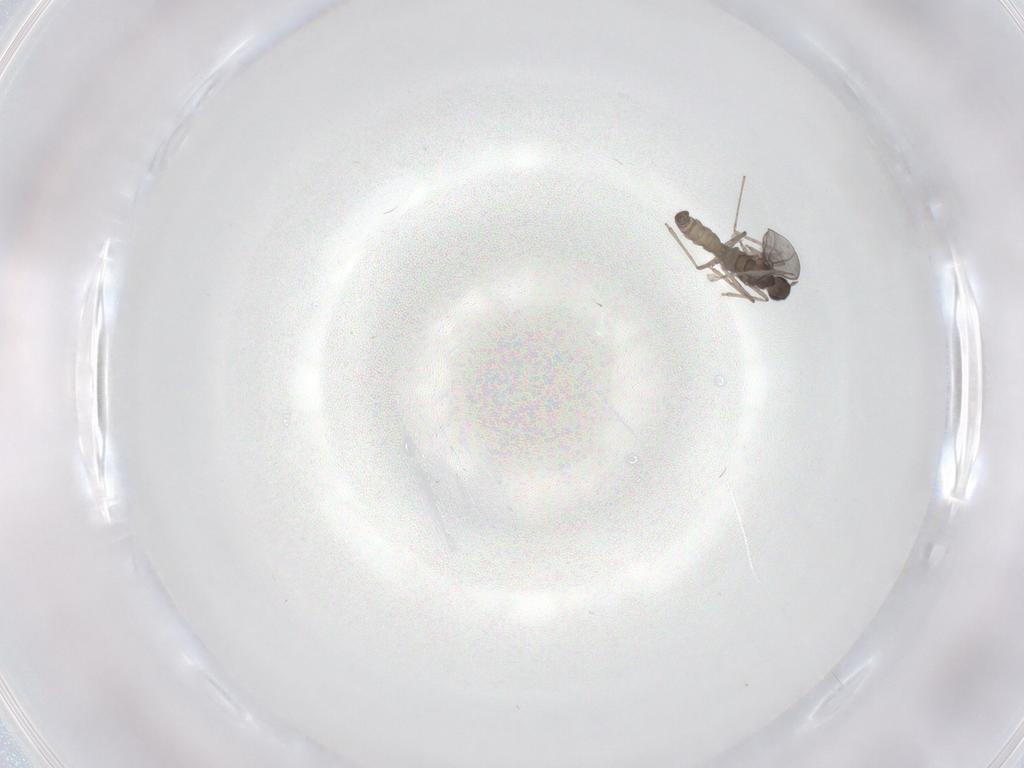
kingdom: Animalia
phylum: Arthropoda
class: Insecta
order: Diptera
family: Cecidomyiidae
